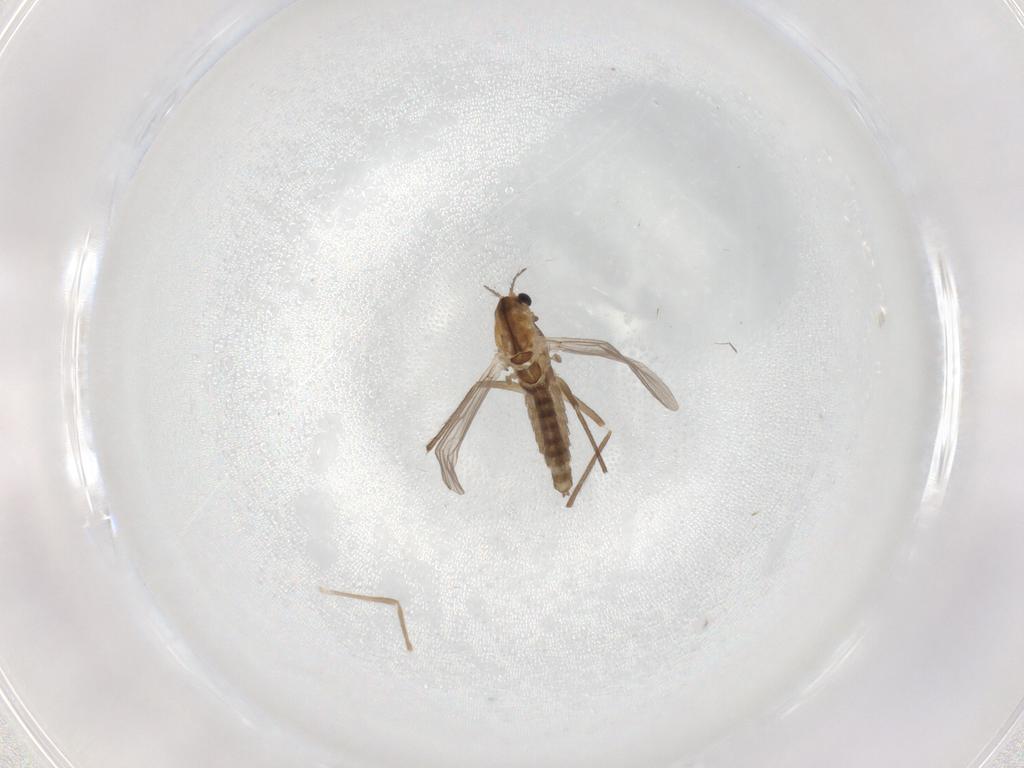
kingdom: Animalia
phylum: Arthropoda
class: Insecta
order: Diptera
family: Chironomidae
